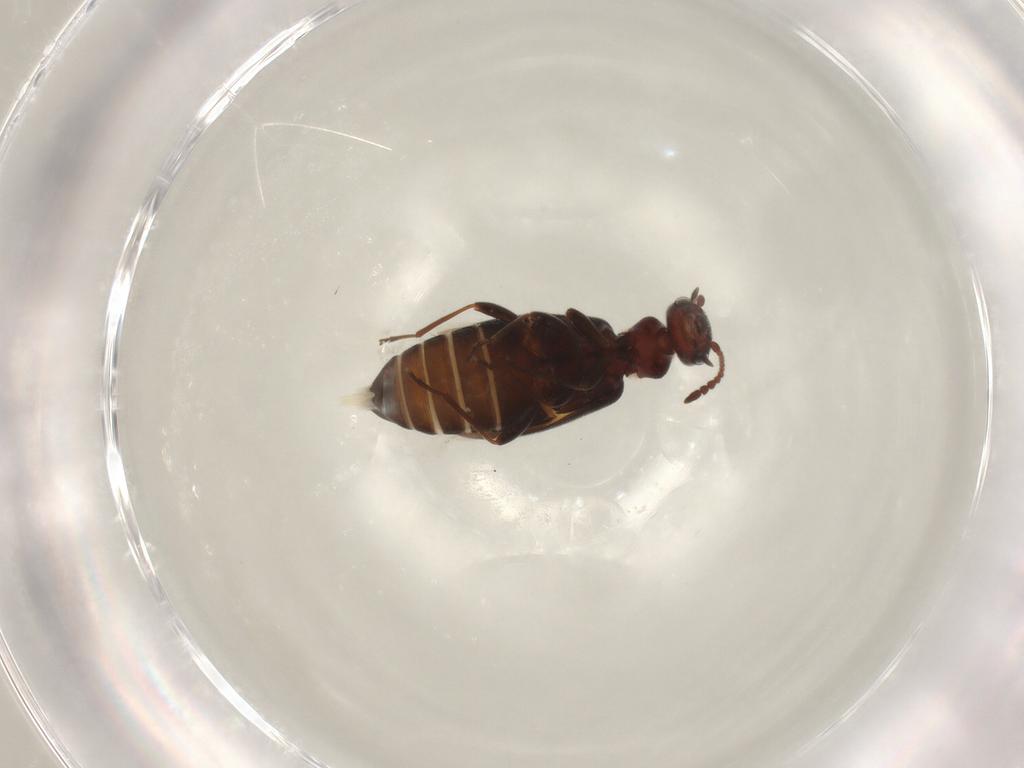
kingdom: Animalia
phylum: Arthropoda
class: Insecta
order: Coleoptera
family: Anthicidae
